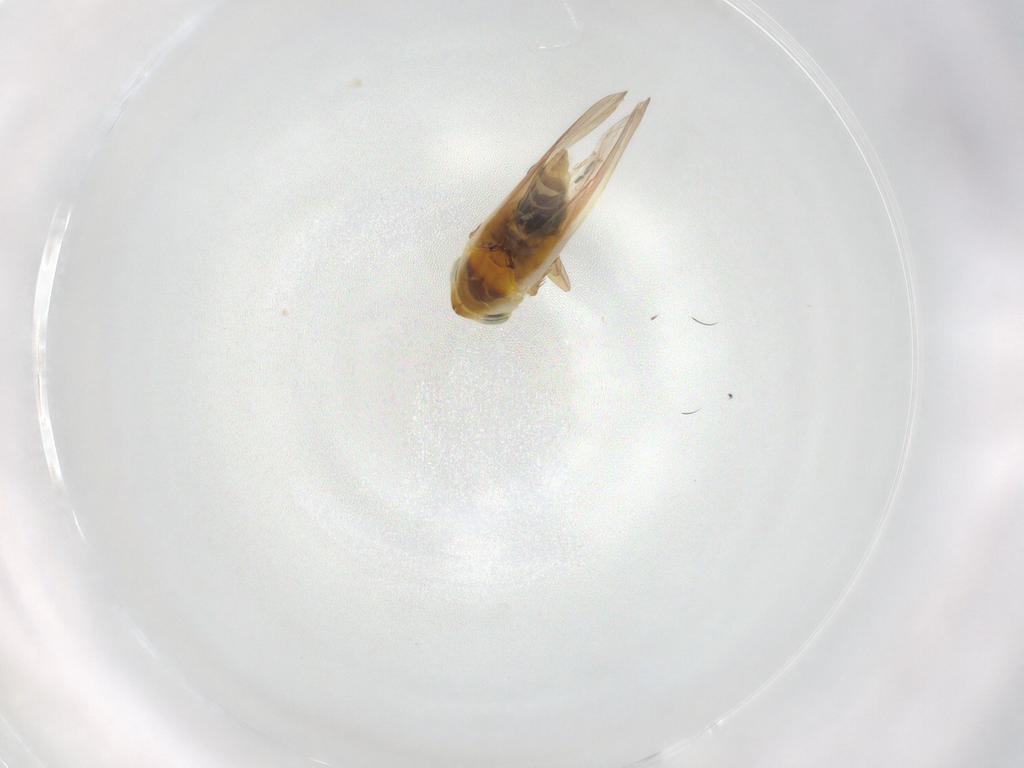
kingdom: Animalia
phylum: Arthropoda
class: Insecta
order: Hemiptera
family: Cicadellidae
